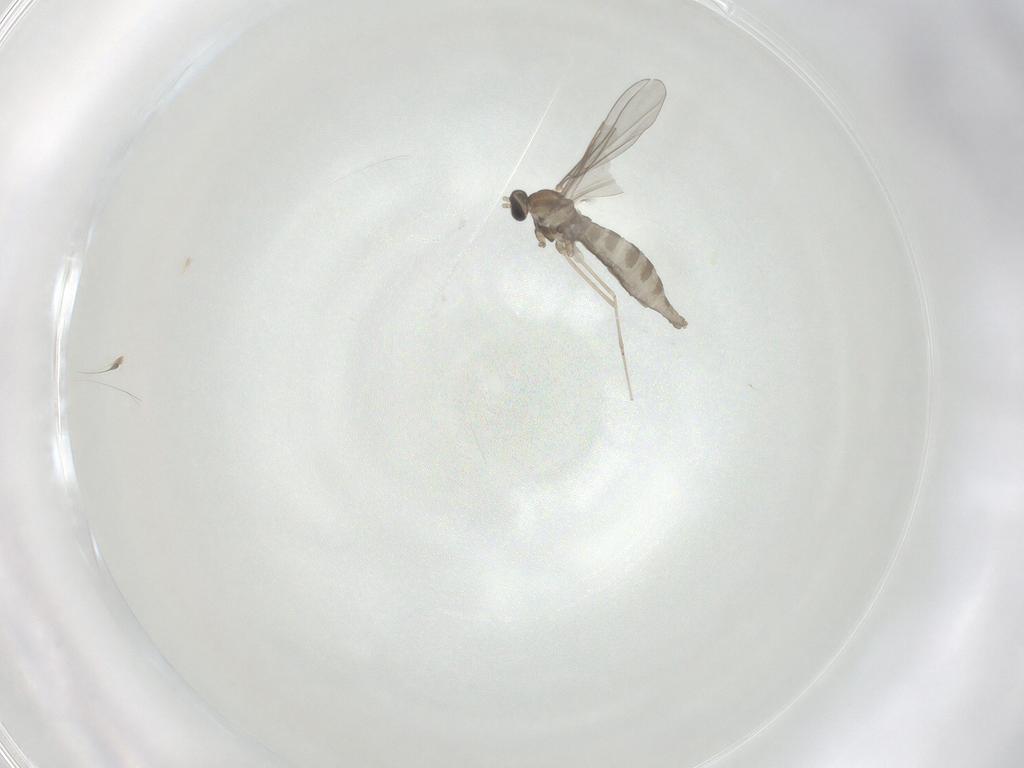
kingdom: Animalia
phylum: Arthropoda
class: Insecta
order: Diptera
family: Cecidomyiidae
